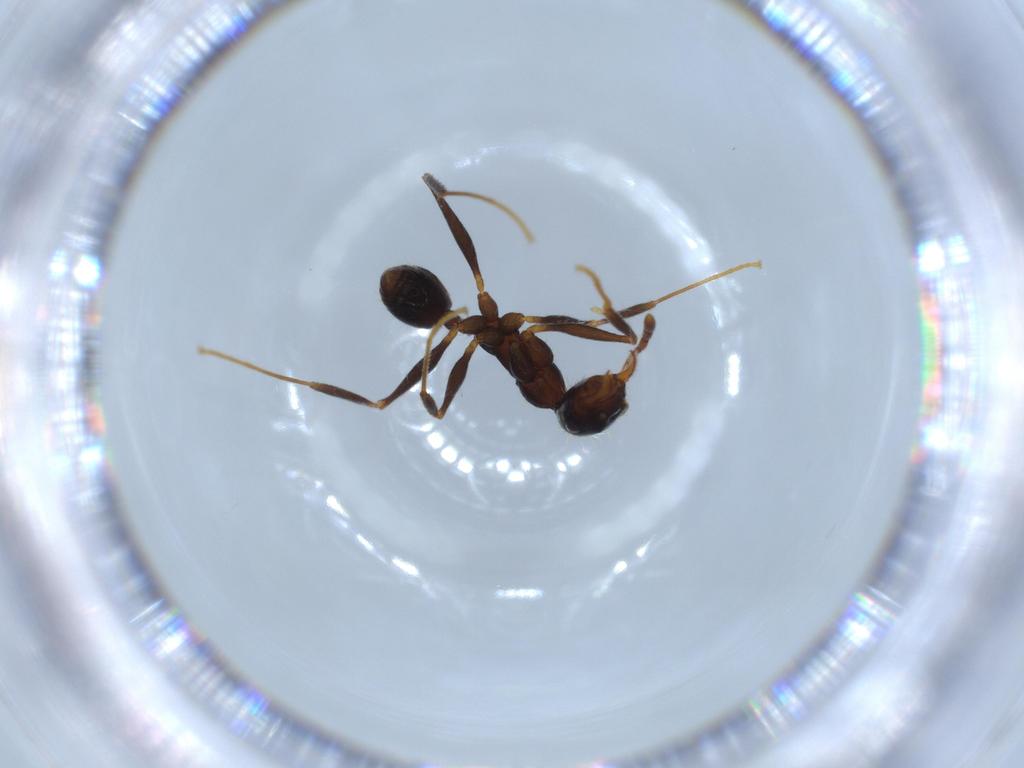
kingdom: Animalia
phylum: Arthropoda
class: Insecta
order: Hymenoptera
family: Formicidae
